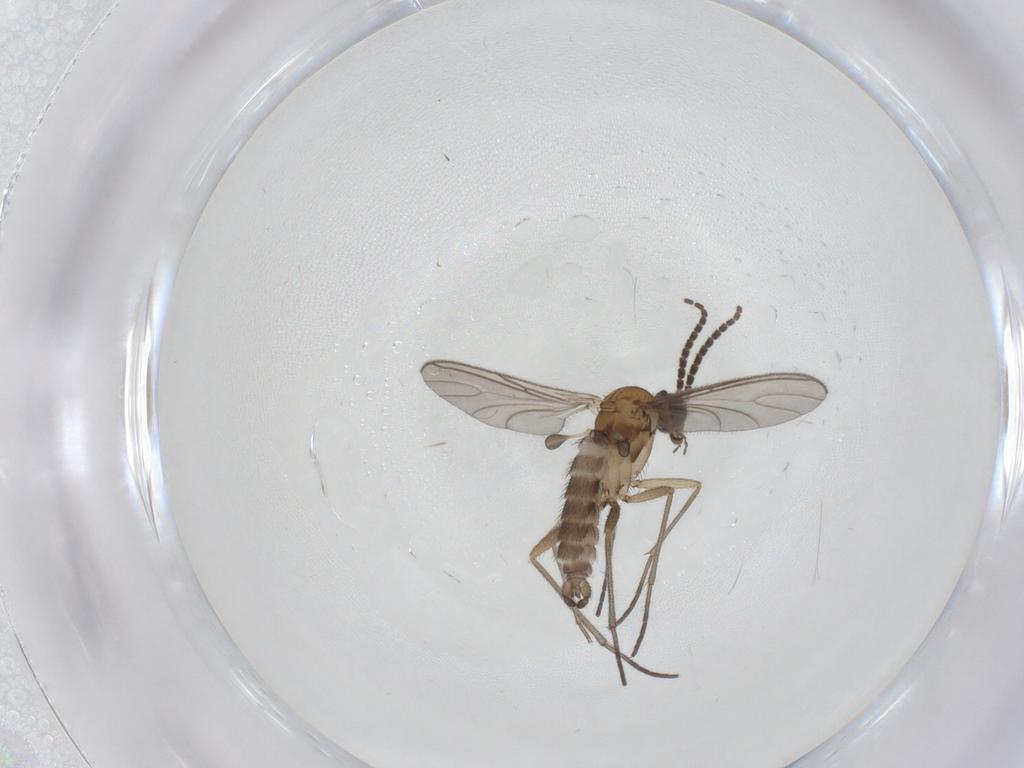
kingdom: Animalia
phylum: Arthropoda
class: Insecta
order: Diptera
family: Sciaridae
